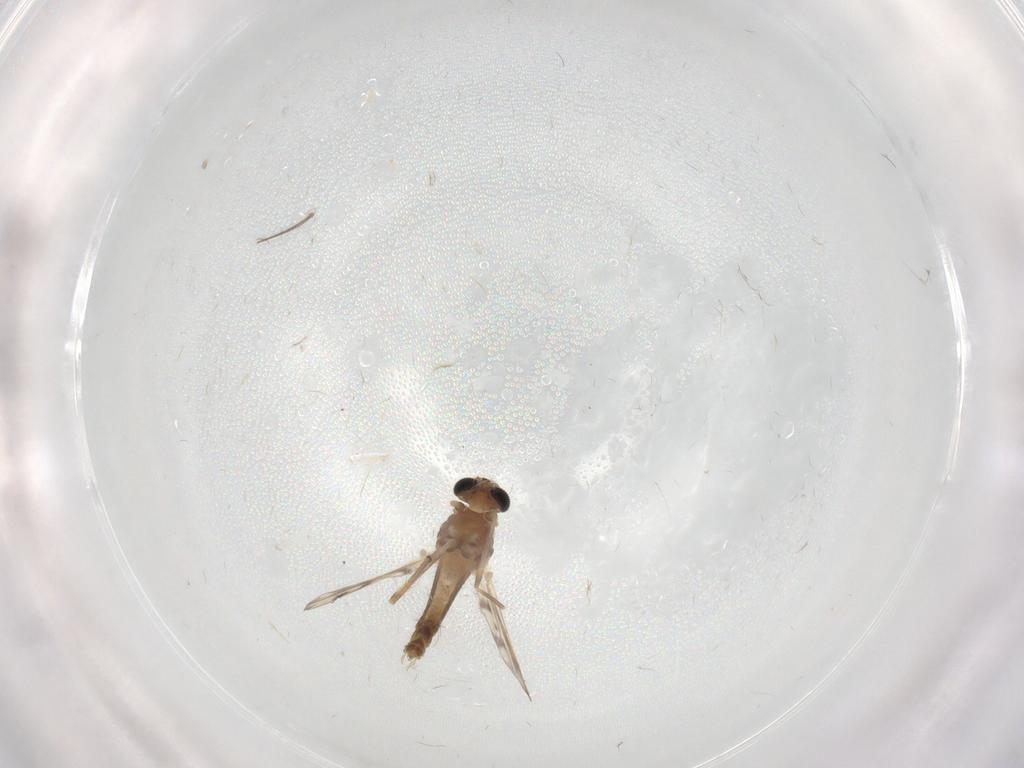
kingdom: Animalia
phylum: Arthropoda
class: Insecta
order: Diptera
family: Chironomidae
